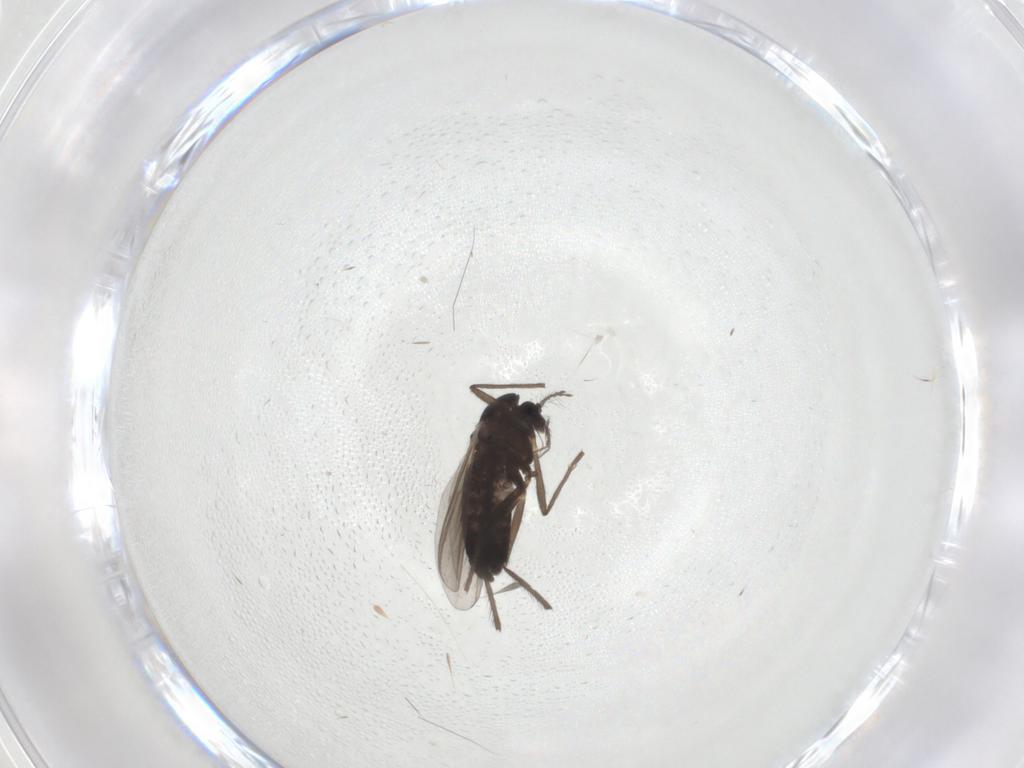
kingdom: Animalia
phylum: Arthropoda
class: Insecta
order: Diptera
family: Chironomidae
